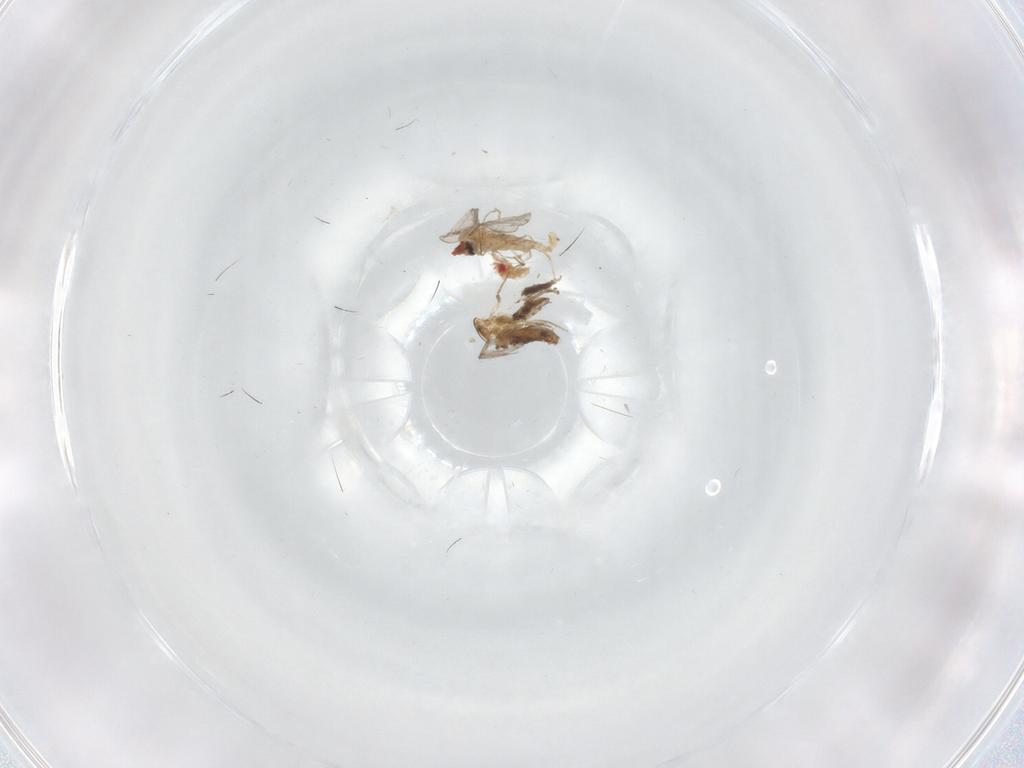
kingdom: Animalia
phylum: Arthropoda
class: Insecta
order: Diptera
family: Chironomidae
